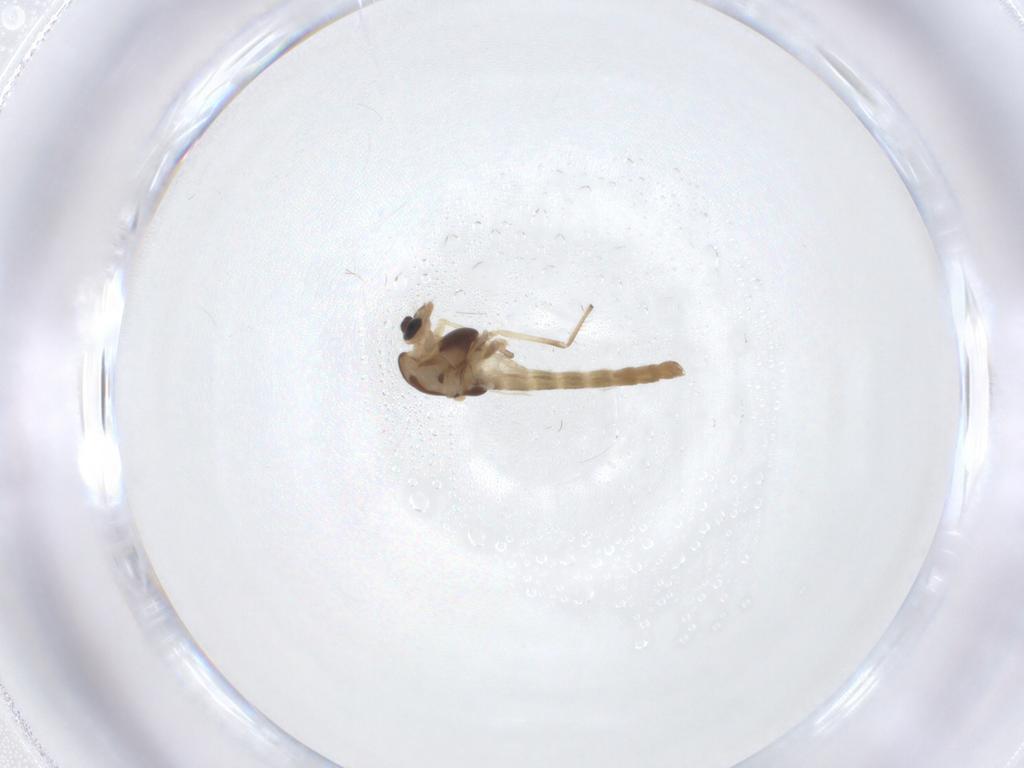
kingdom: Animalia
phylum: Arthropoda
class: Insecta
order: Diptera
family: Chironomidae
